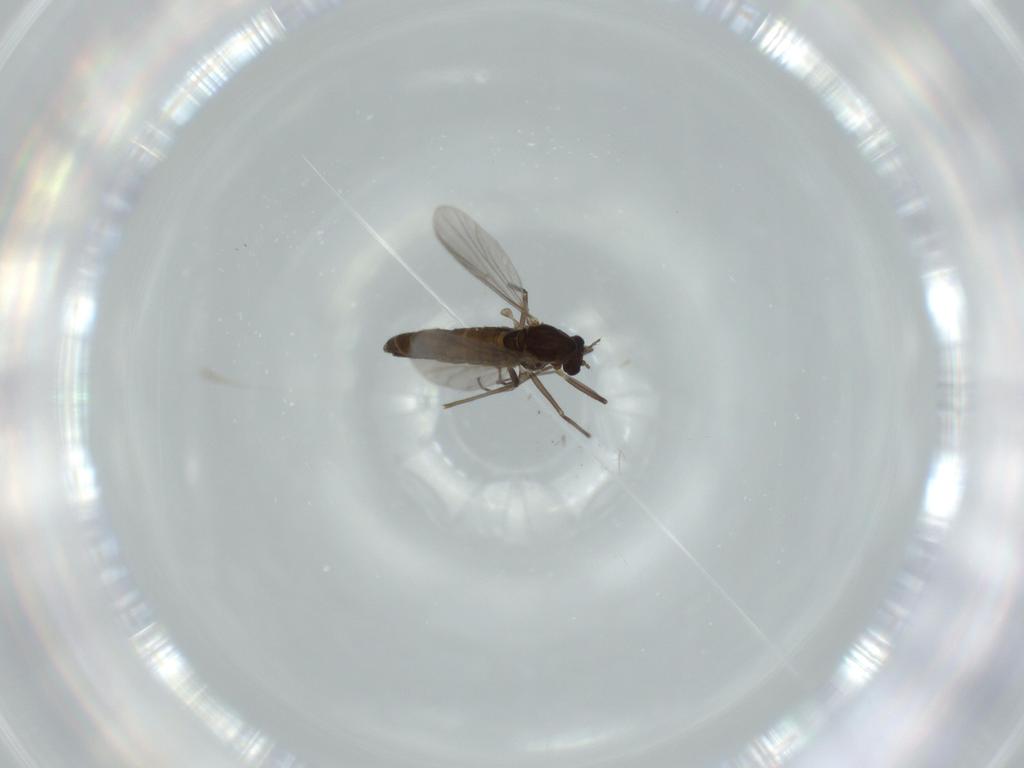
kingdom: Animalia
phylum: Arthropoda
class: Insecta
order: Diptera
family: Chironomidae
